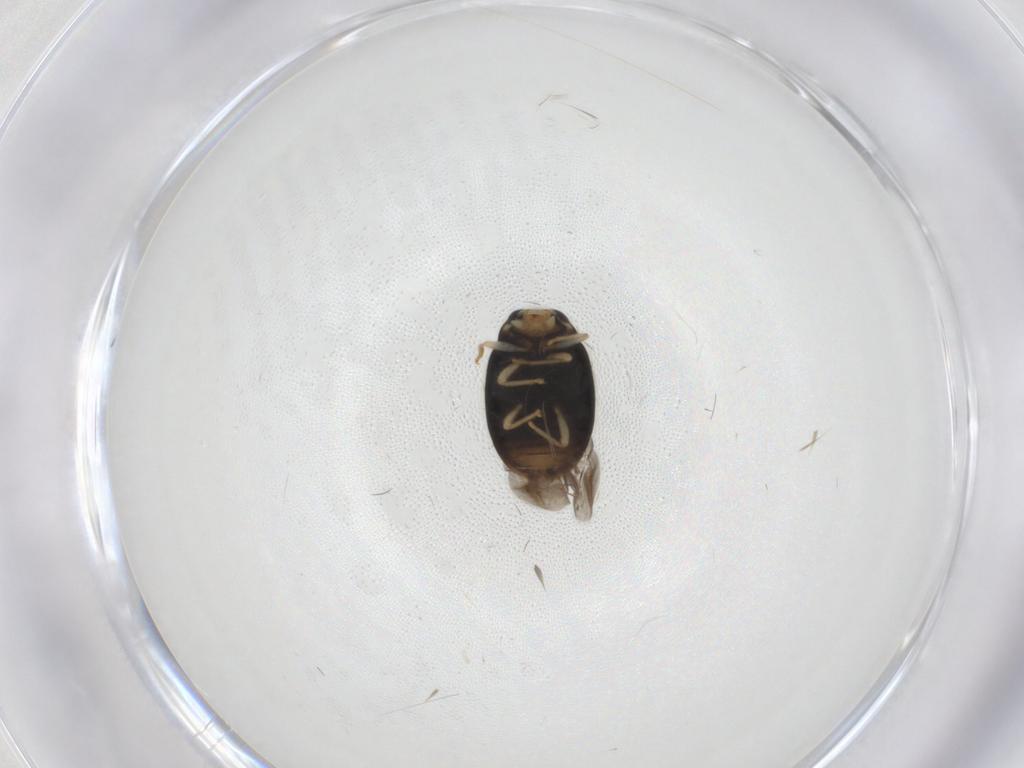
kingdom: Animalia
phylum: Arthropoda
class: Insecta
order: Coleoptera
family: Coccinellidae
